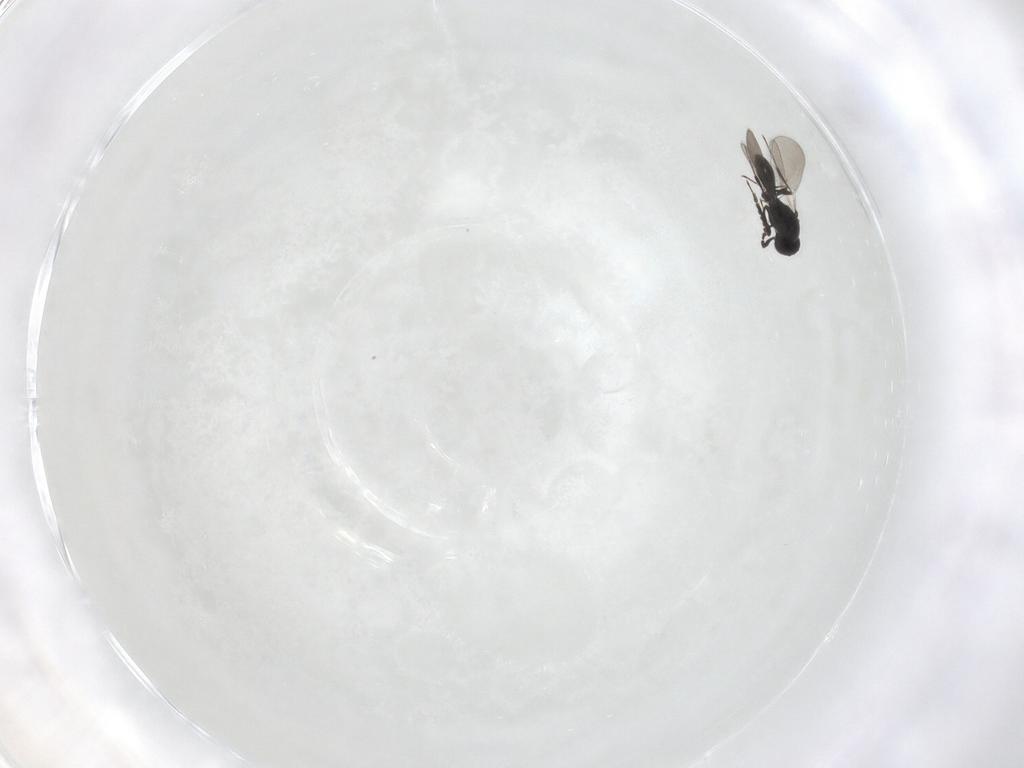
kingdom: Animalia
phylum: Arthropoda
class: Insecta
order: Hymenoptera
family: Platygastridae
